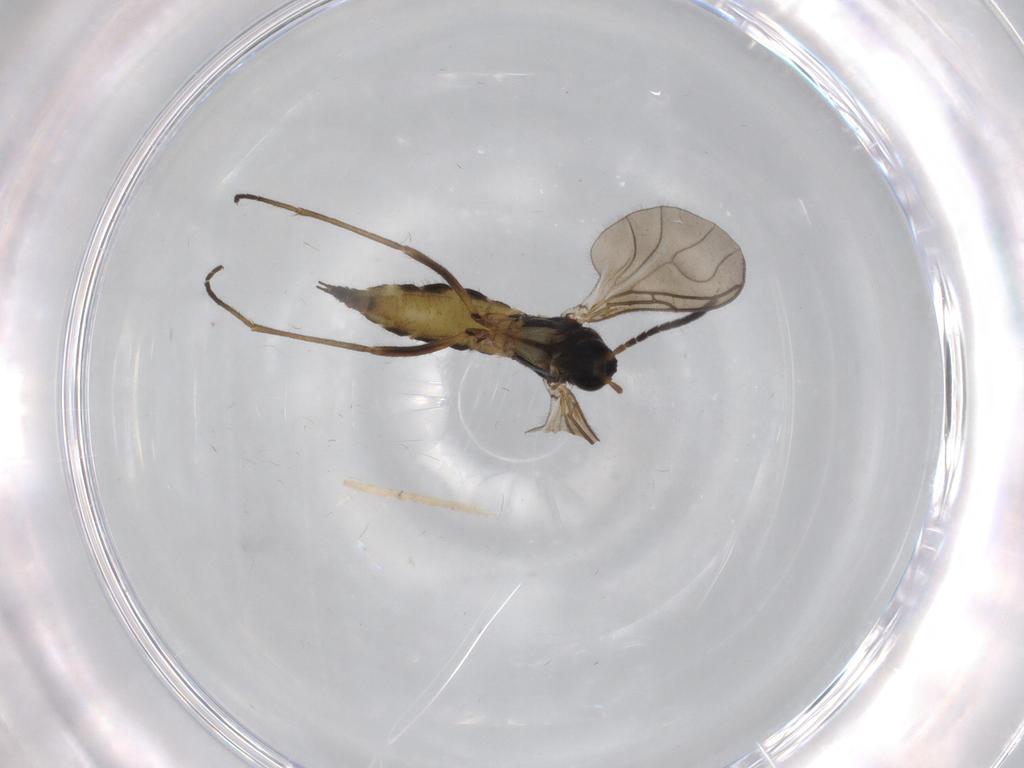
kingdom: Animalia
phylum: Arthropoda
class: Insecta
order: Diptera
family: Sciaridae
